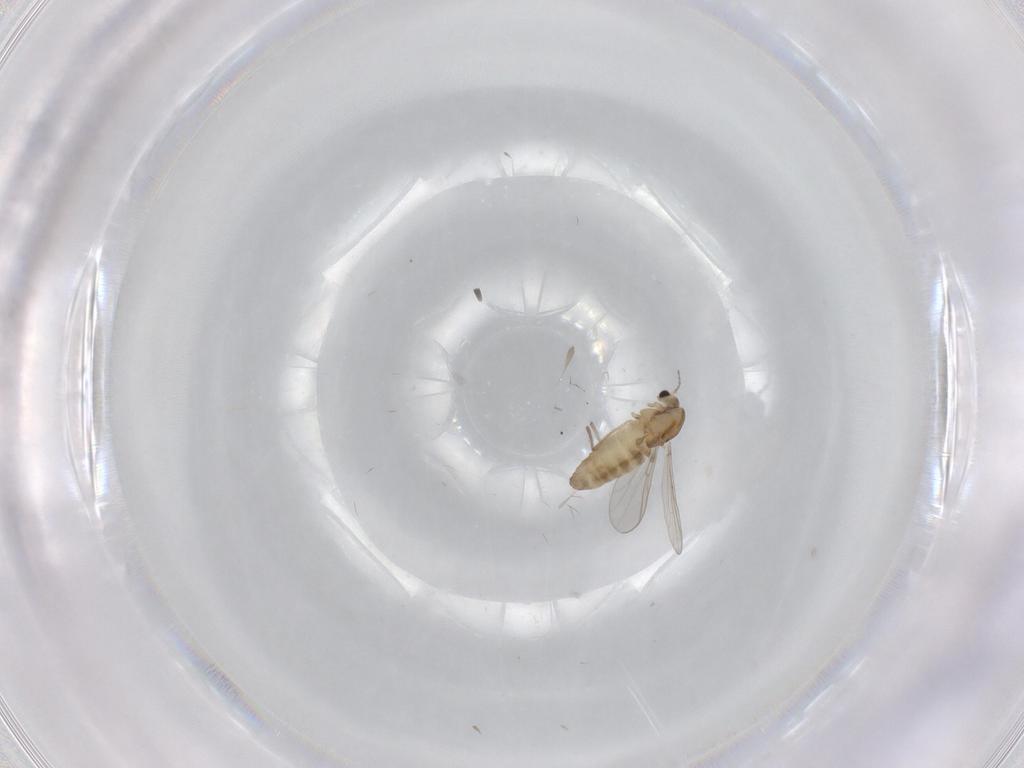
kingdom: Animalia
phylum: Arthropoda
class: Insecta
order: Diptera
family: Chironomidae
